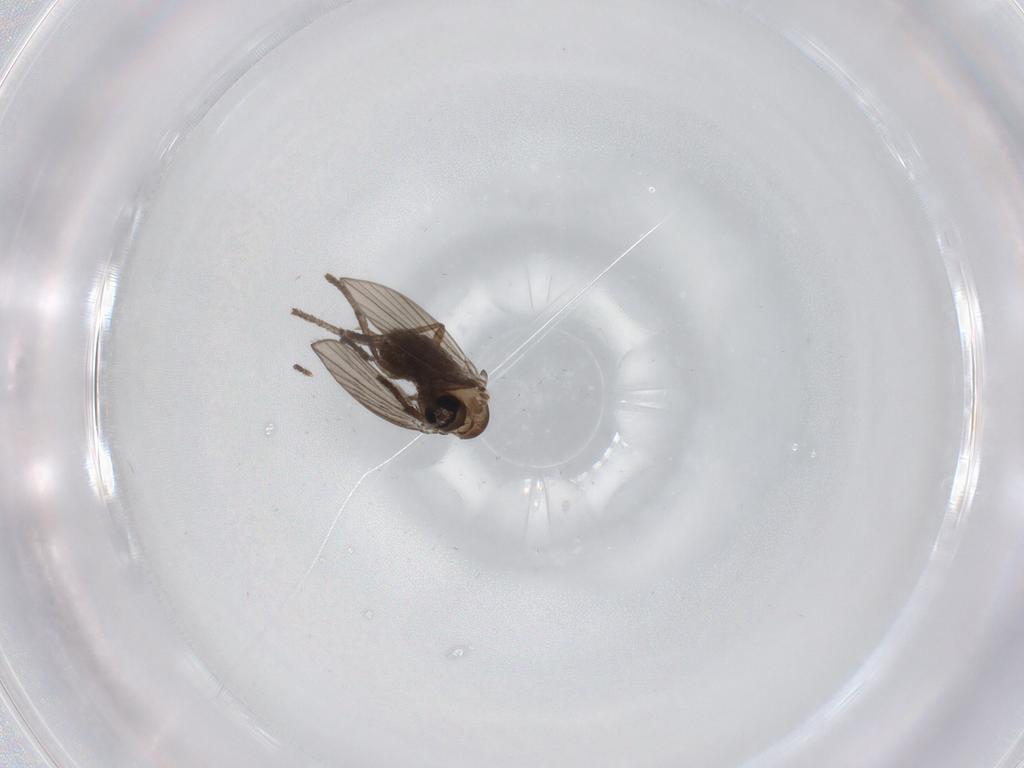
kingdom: Animalia
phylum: Arthropoda
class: Insecta
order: Diptera
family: Psychodidae
